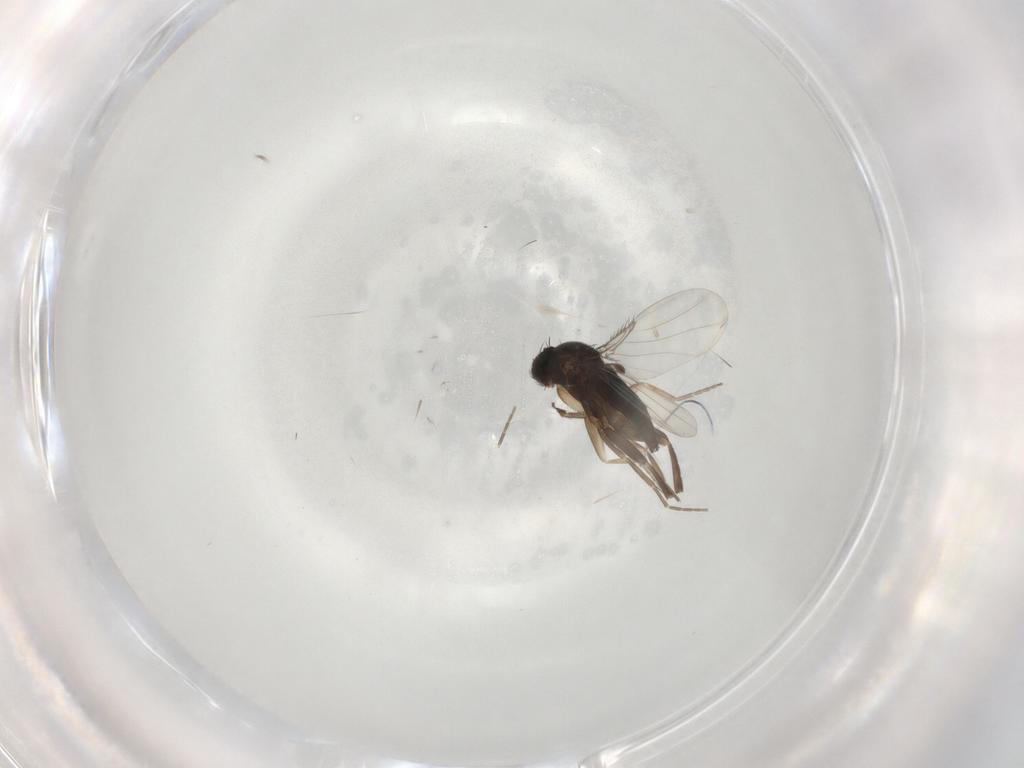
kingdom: Animalia
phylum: Arthropoda
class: Insecta
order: Diptera
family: Phoridae
